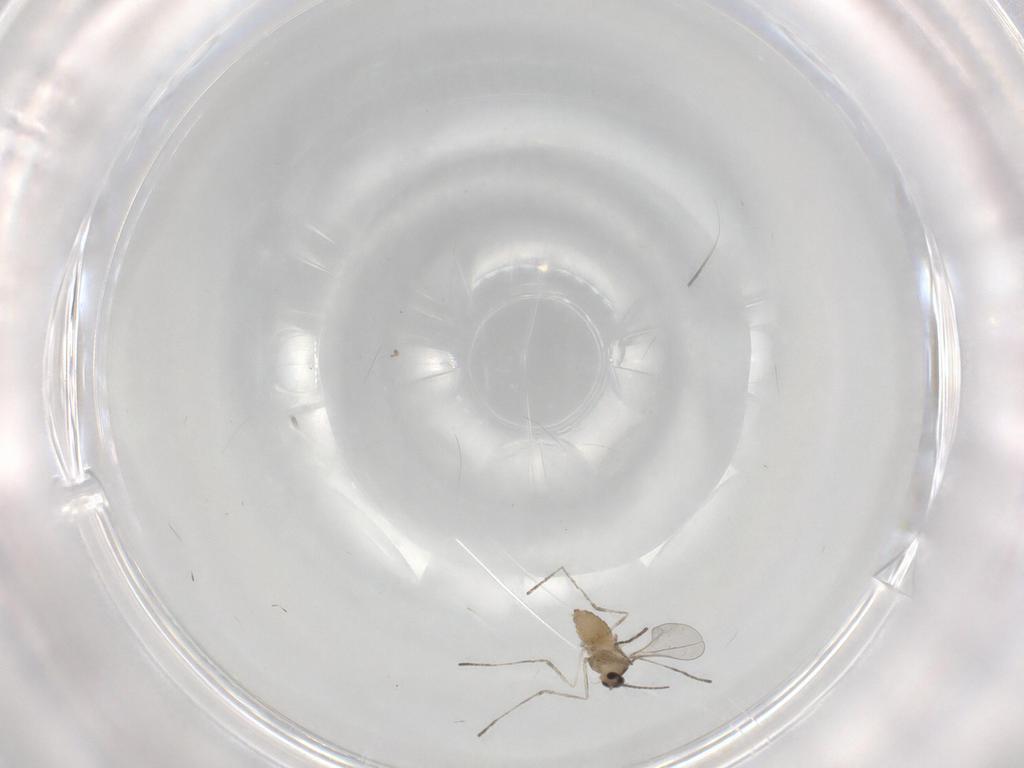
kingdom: Animalia
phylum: Arthropoda
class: Insecta
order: Diptera
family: Cecidomyiidae
